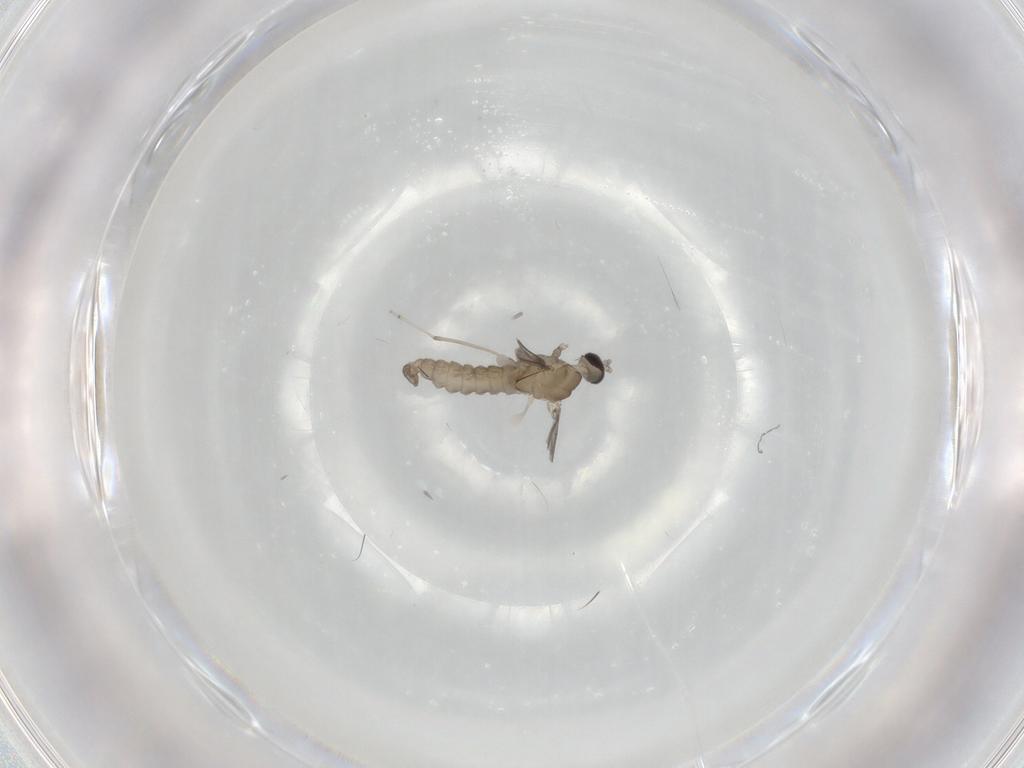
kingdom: Animalia
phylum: Arthropoda
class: Insecta
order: Diptera
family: Cecidomyiidae
